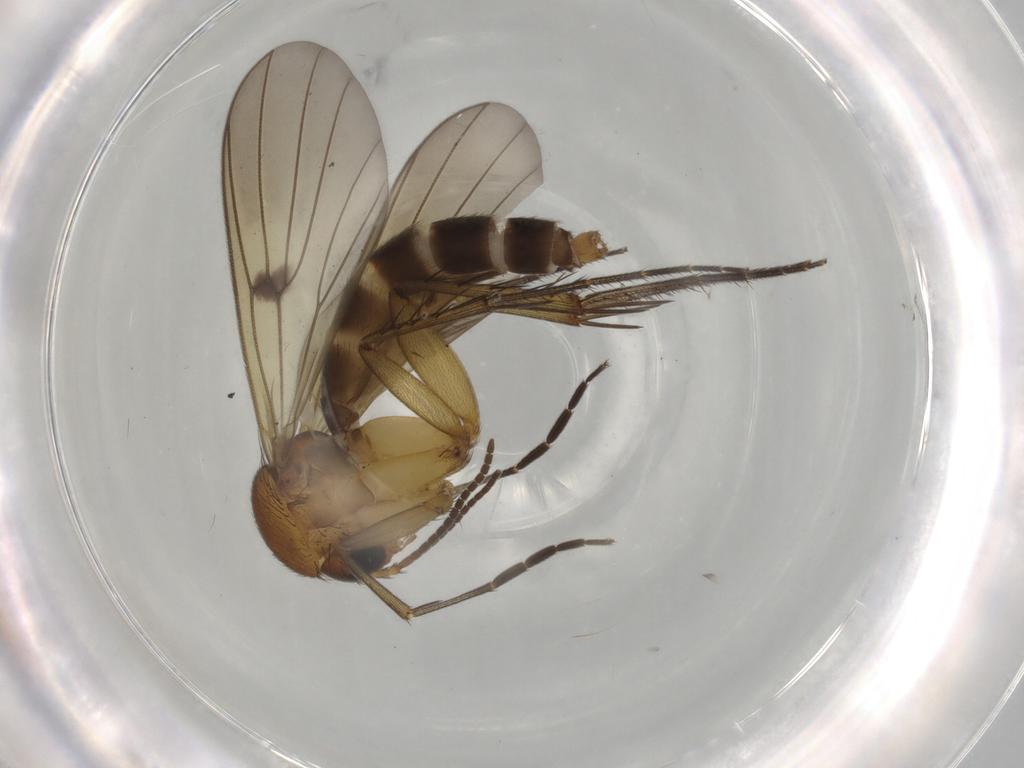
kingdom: Animalia
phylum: Arthropoda
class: Insecta
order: Diptera
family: Mycetophilidae
